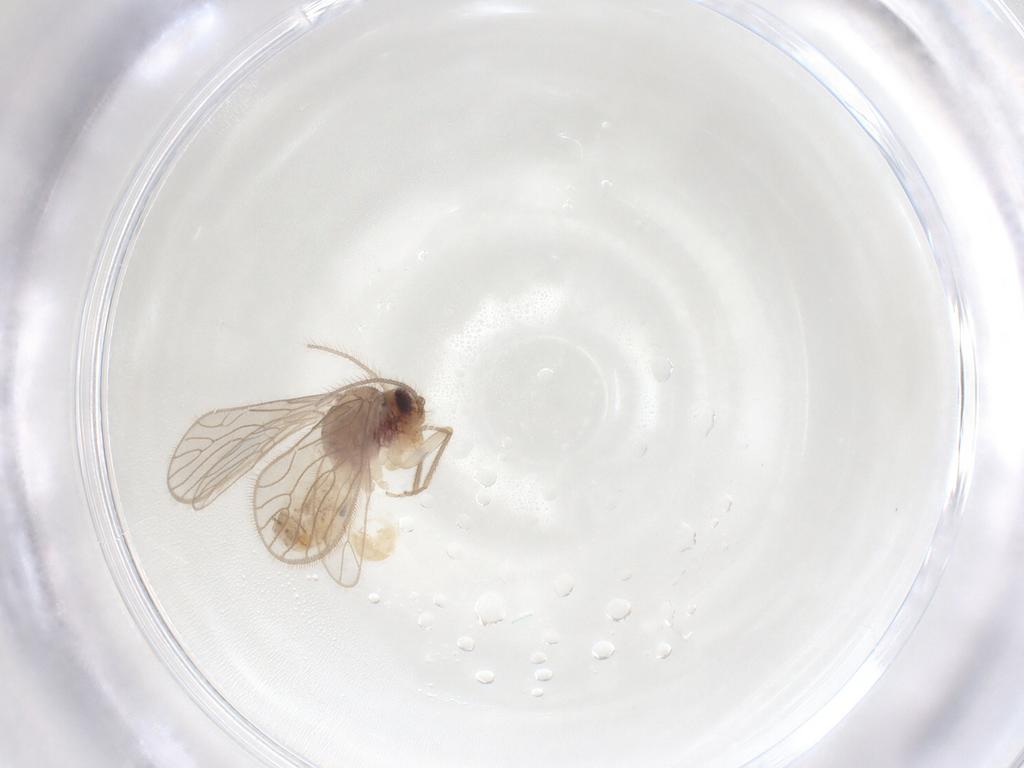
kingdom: Animalia
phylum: Arthropoda
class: Insecta
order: Psocodea
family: Dolabellopsocidae
